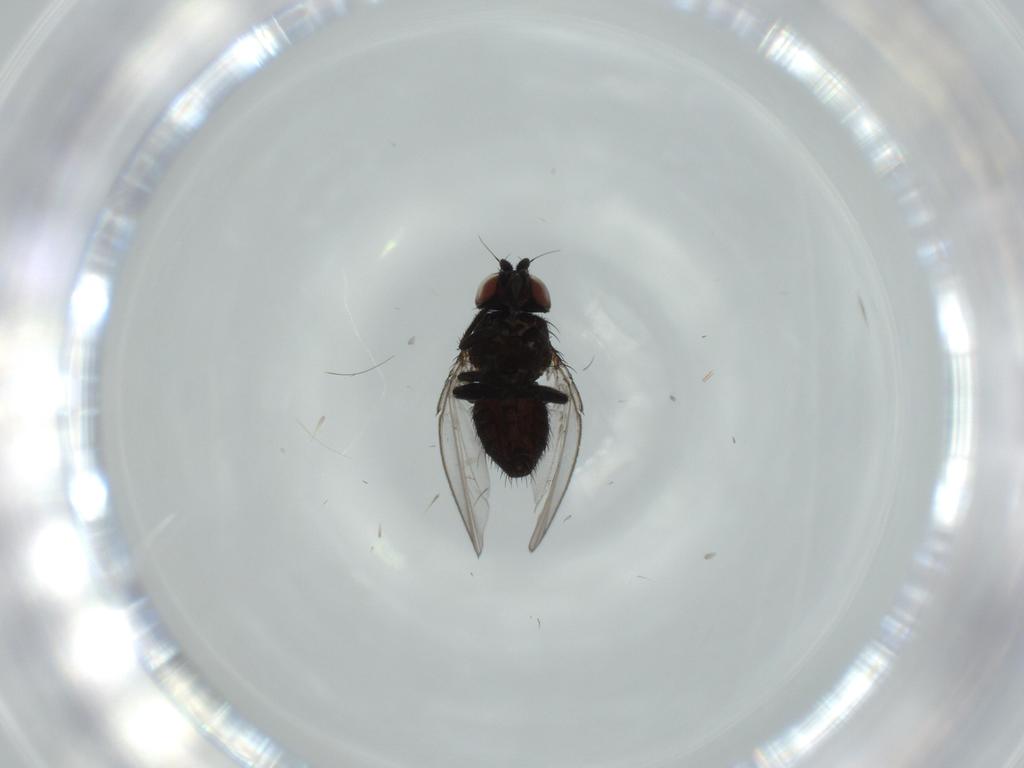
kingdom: Animalia
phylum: Arthropoda
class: Insecta
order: Diptera
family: Milichiidae
